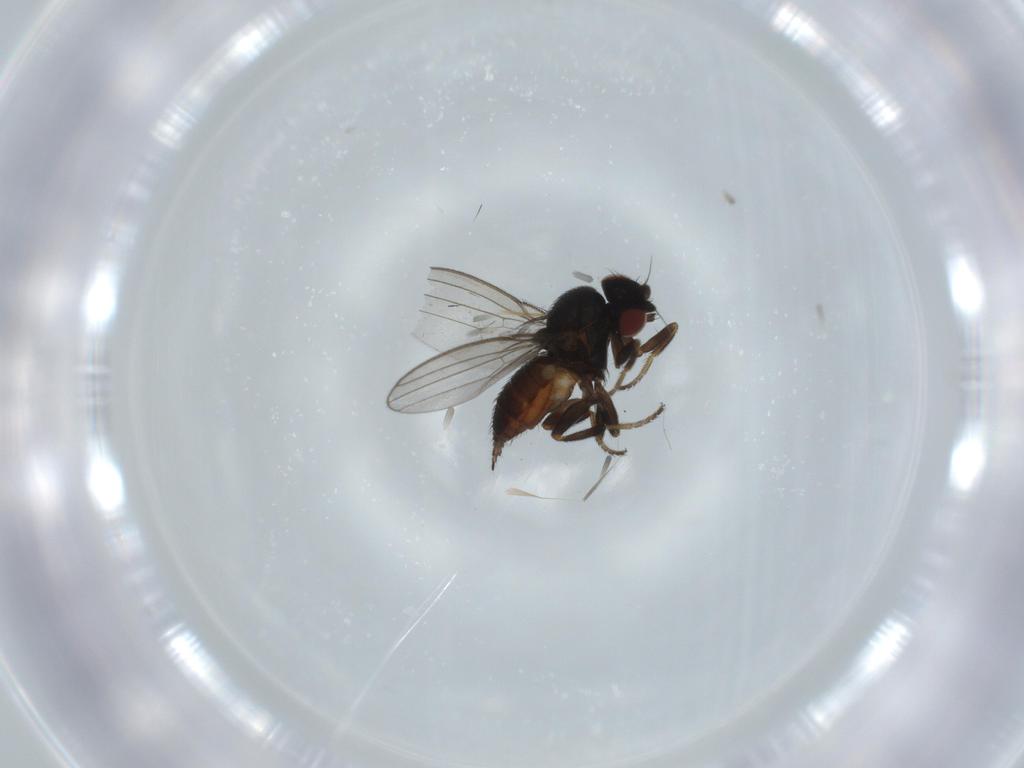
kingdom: Animalia
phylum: Arthropoda
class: Insecta
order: Diptera
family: Milichiidae
